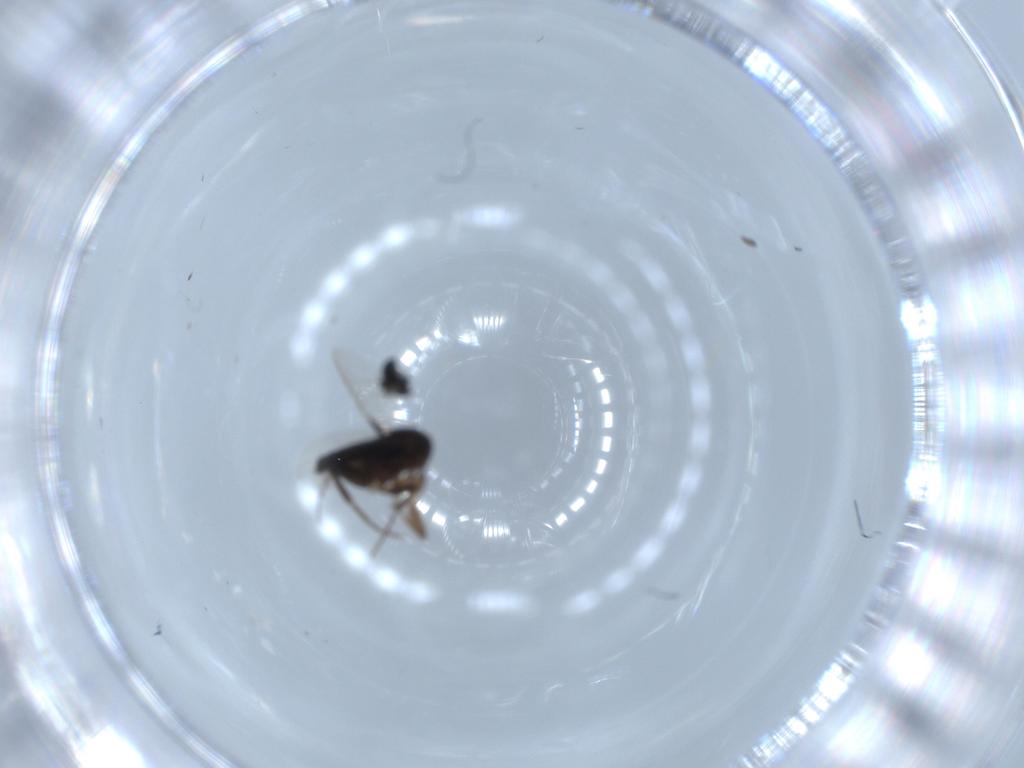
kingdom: Animalia
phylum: Arthropoda
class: Insecta
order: Diptera
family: Phoridae
